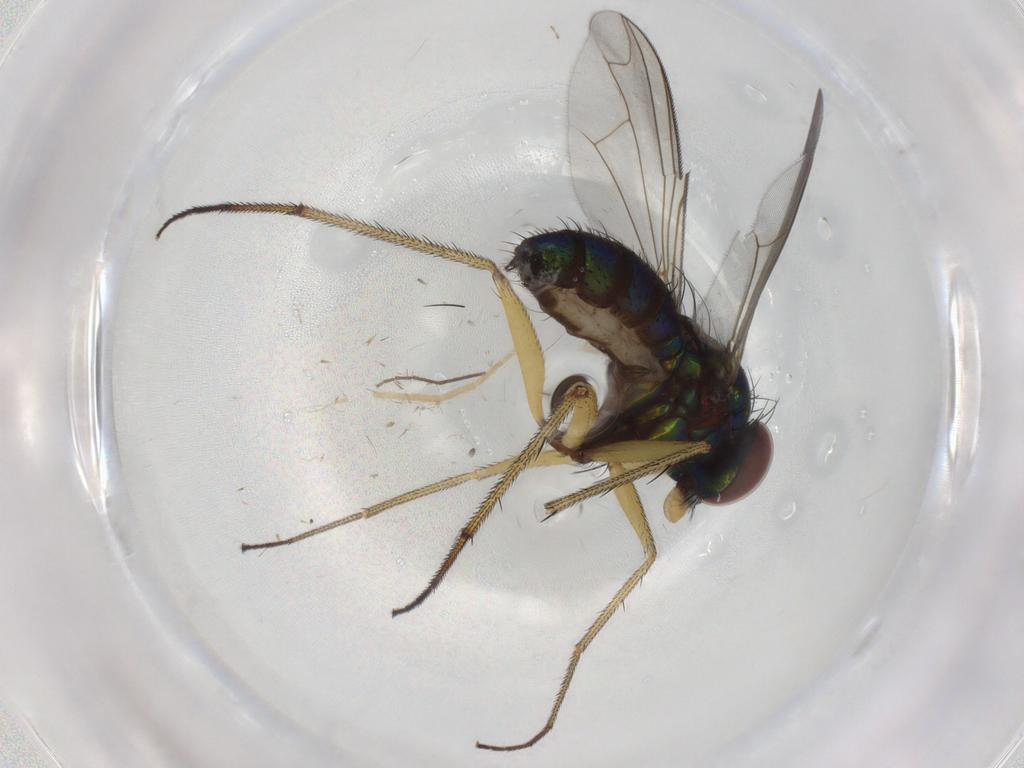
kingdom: Animalia
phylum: Arthropoda
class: Insecta
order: Diptera
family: Dolichopodidae
